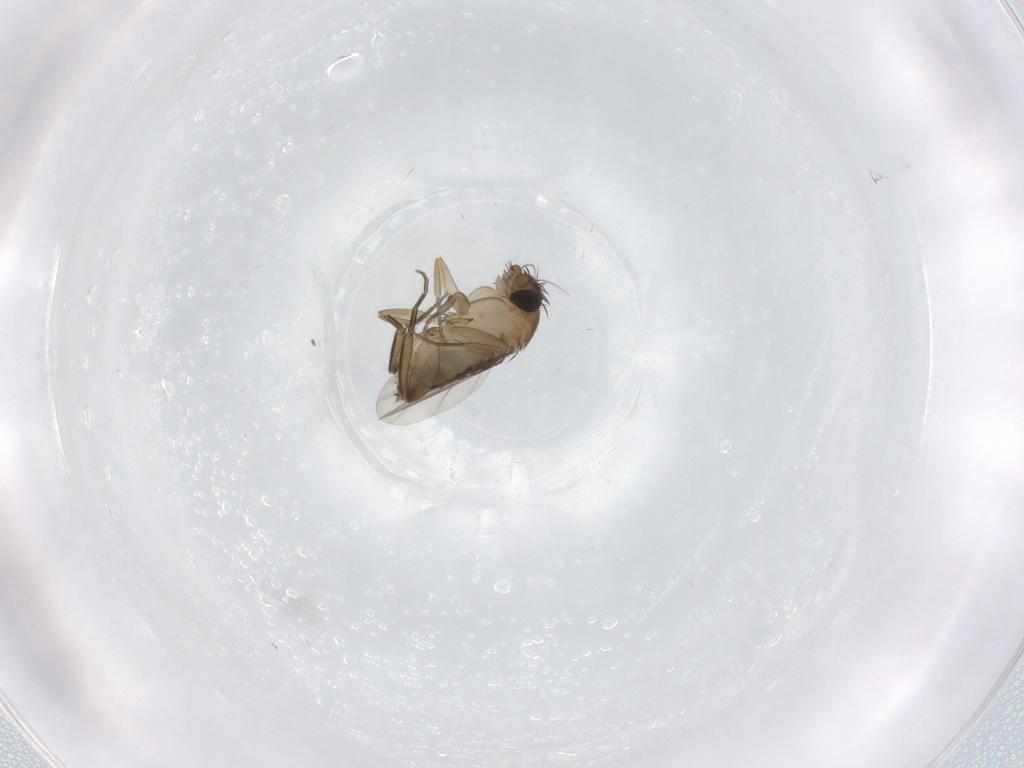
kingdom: Animalia
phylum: Arthropoda
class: Insecta
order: Diptera
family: Phoridae
